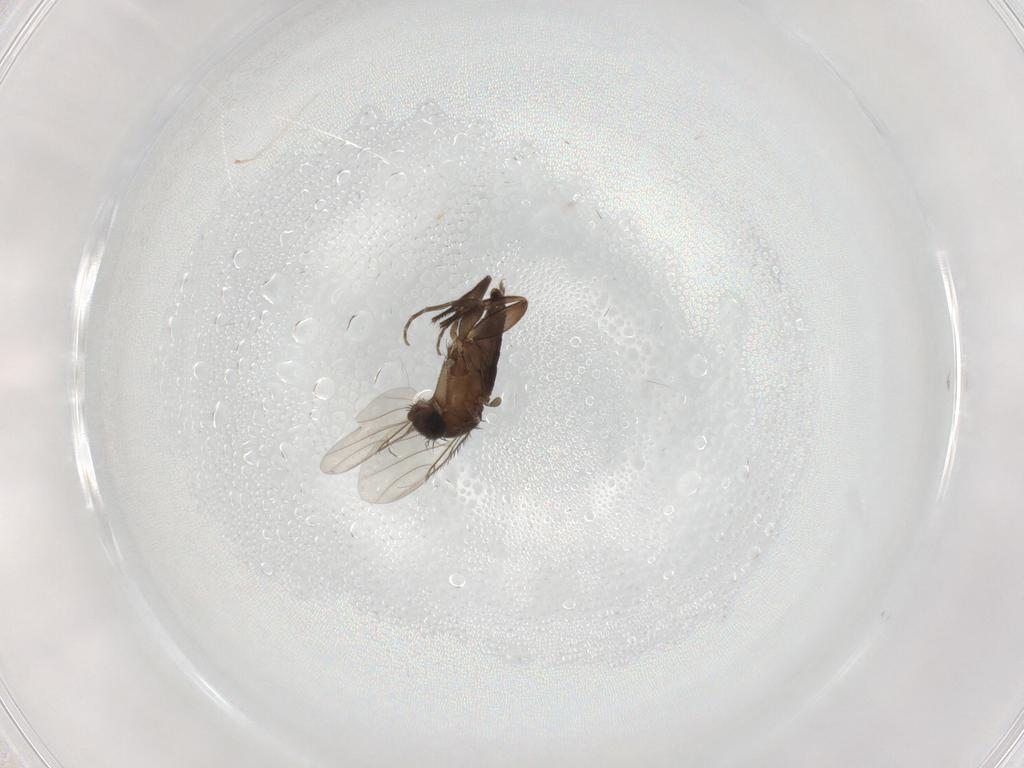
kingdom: Animalia
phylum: Arthropoda
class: Insecta
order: Diptera
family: Phoridae
